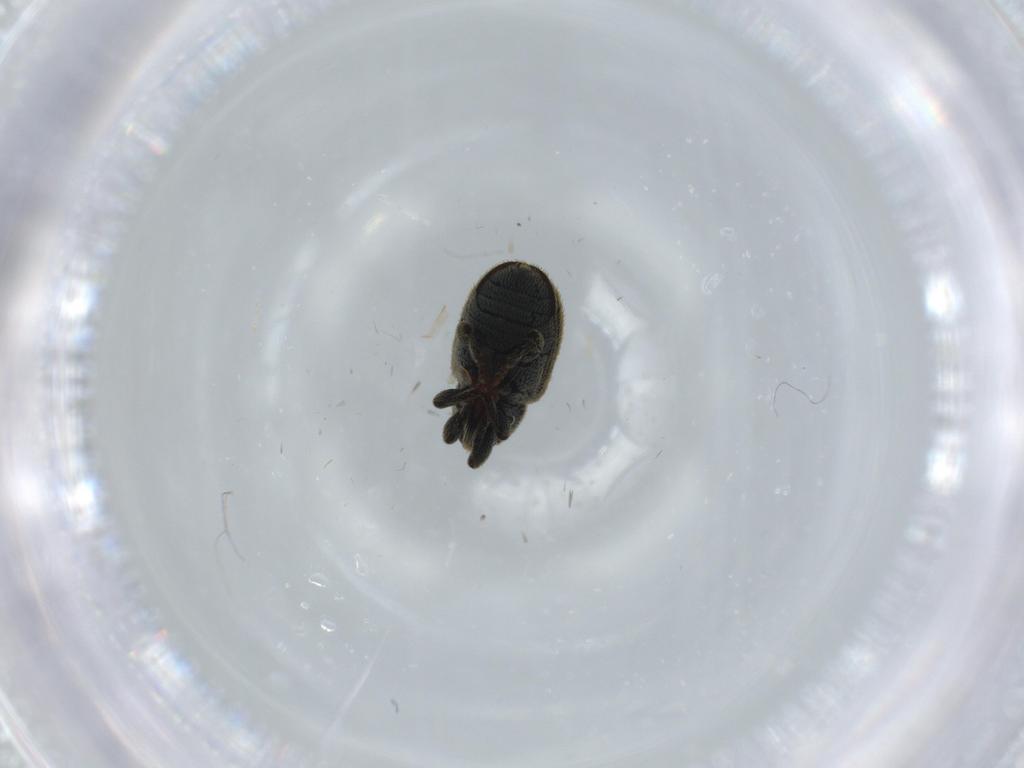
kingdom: Animalia
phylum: Arthropoda
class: Insecta
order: Coleoptera
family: Curculionidae
